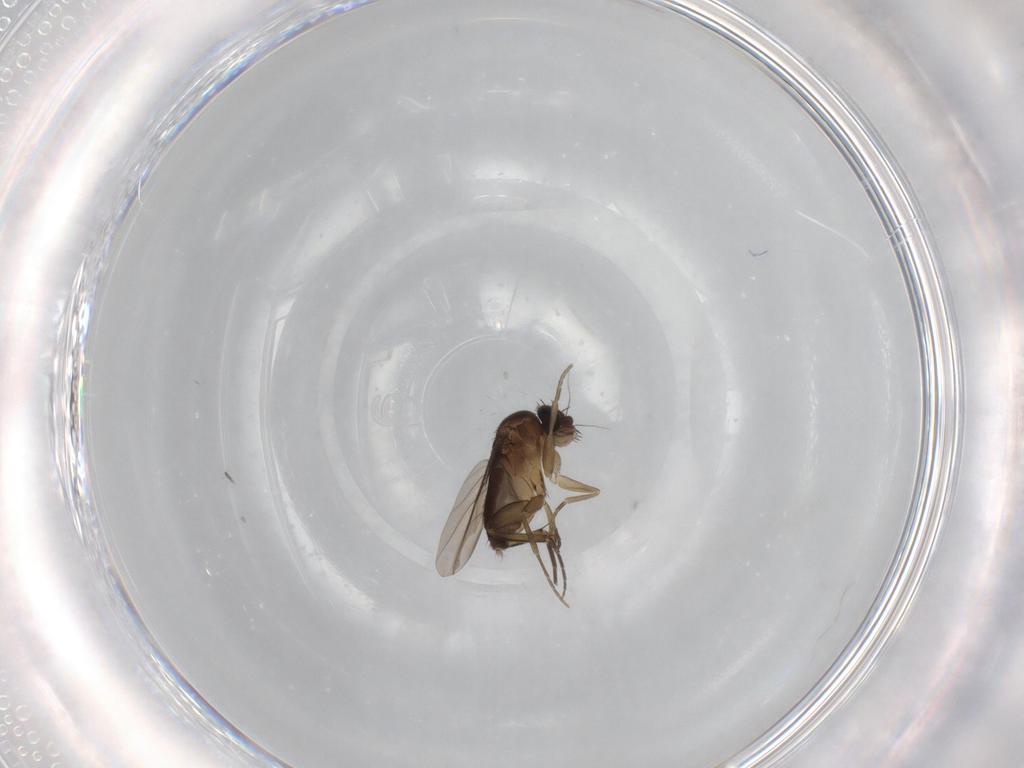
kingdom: Animalia
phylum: Arthropoda
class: Insecta
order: Diptera
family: Phoridae
